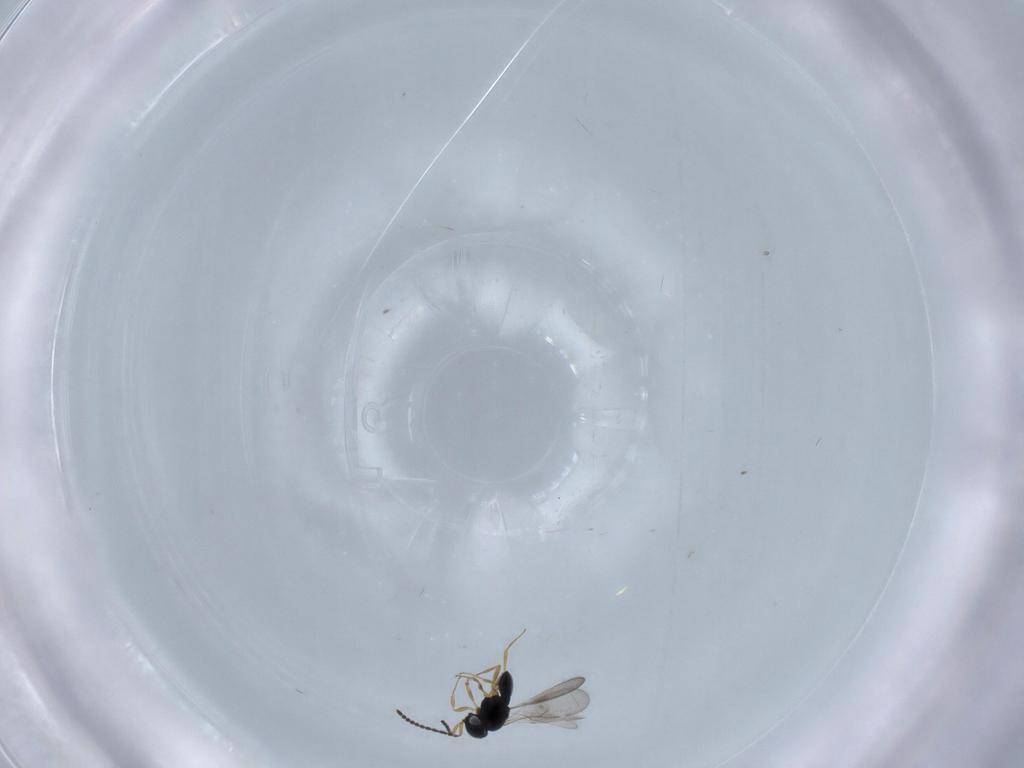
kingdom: Animalia
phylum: Arthropoda
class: Insecta
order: Hymenoptera
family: Scelionidae
